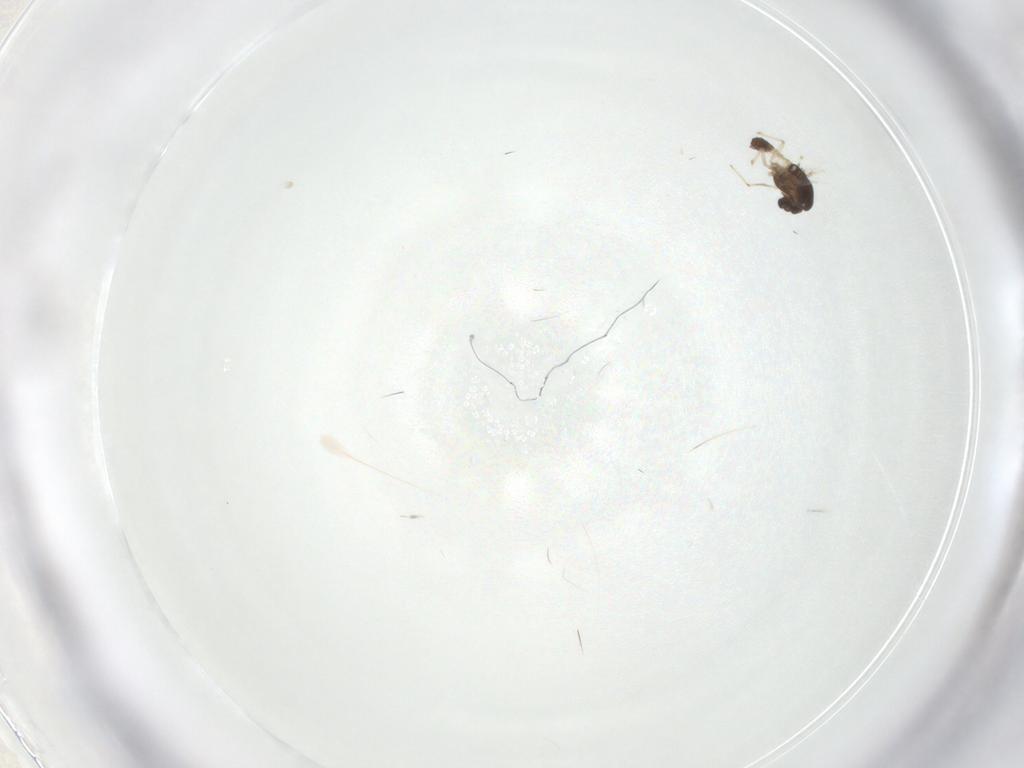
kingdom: Animalia
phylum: Arthropoda
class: Insecta
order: Diptera
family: Chironomidae
